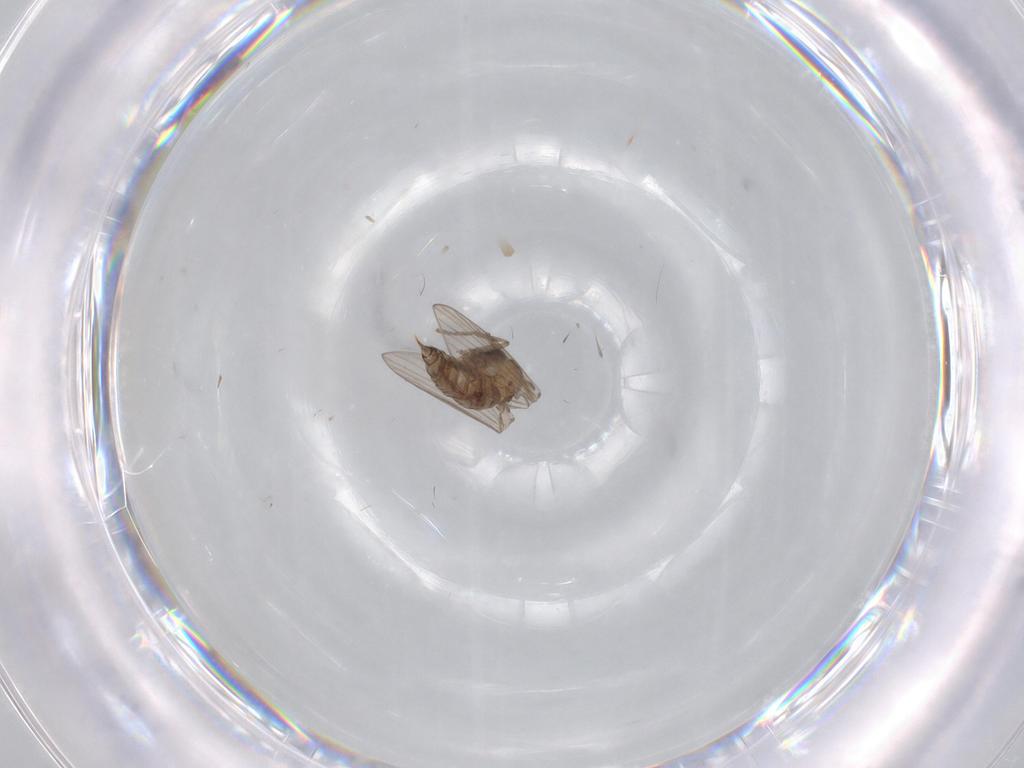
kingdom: Animalia
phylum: Arthropoda
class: Insecta
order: Diptera
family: Psychodidae
